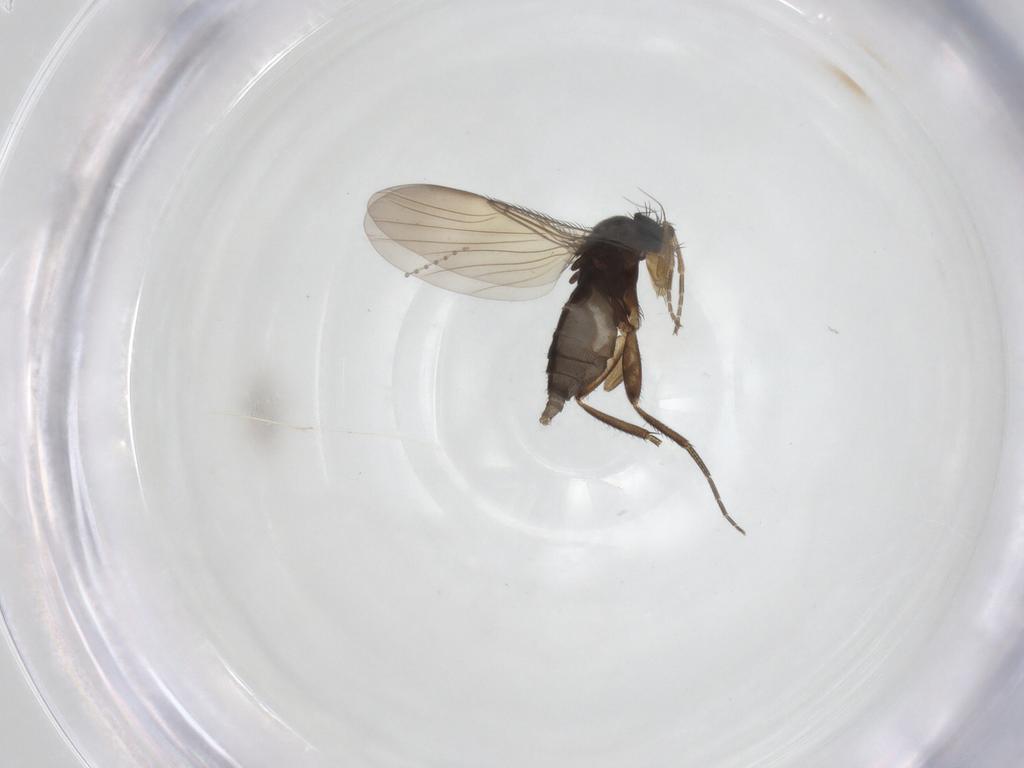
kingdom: Animalia
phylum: Arthropoda
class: Insecta
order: Diptera
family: Phoridae
